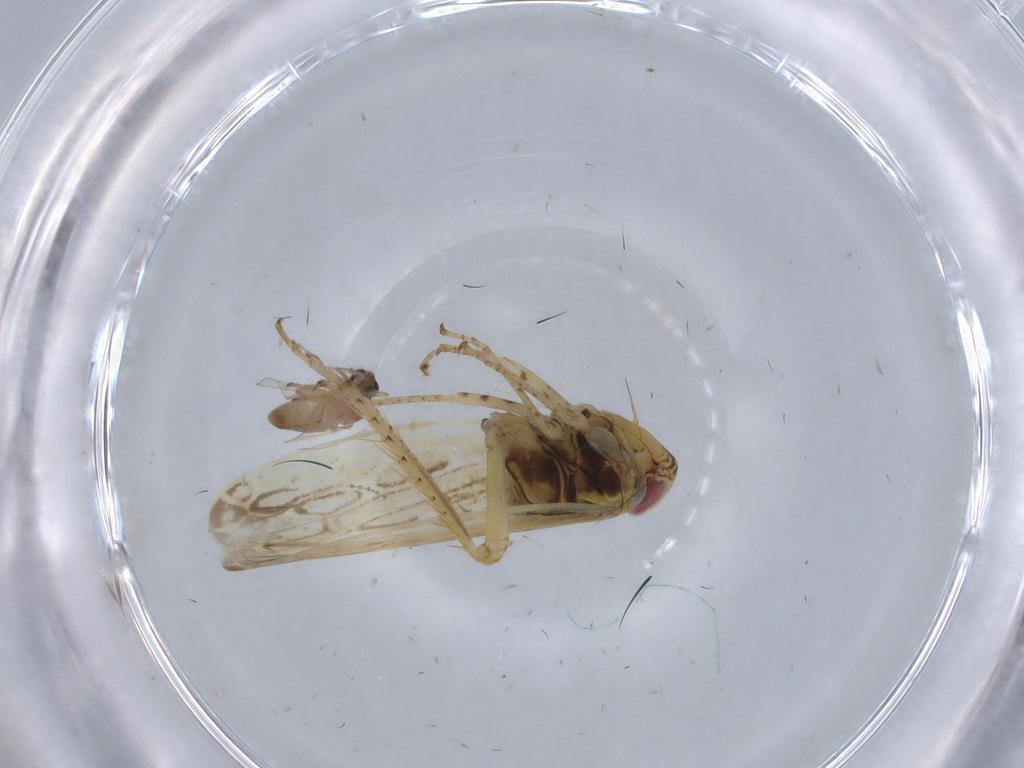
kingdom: Animalia
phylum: Arthropoda
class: Insecta
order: Hemiptera
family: Cicadellidae
